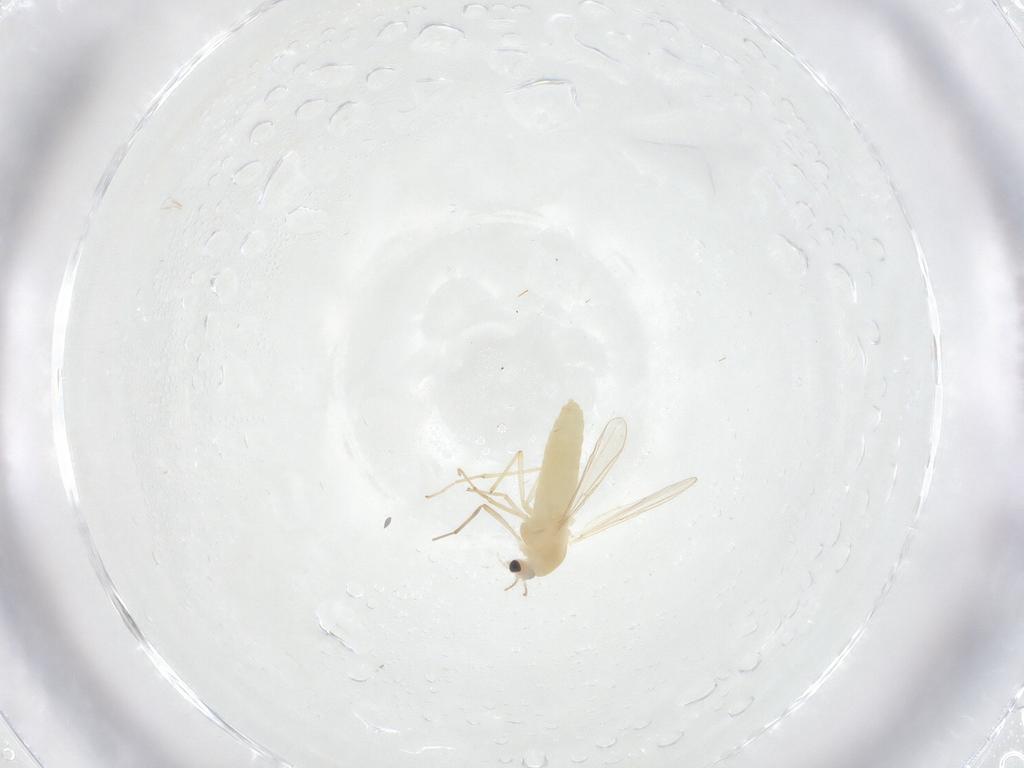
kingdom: Animalia
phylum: Arthropoda
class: Insecta
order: Diptera
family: Chironomidae
